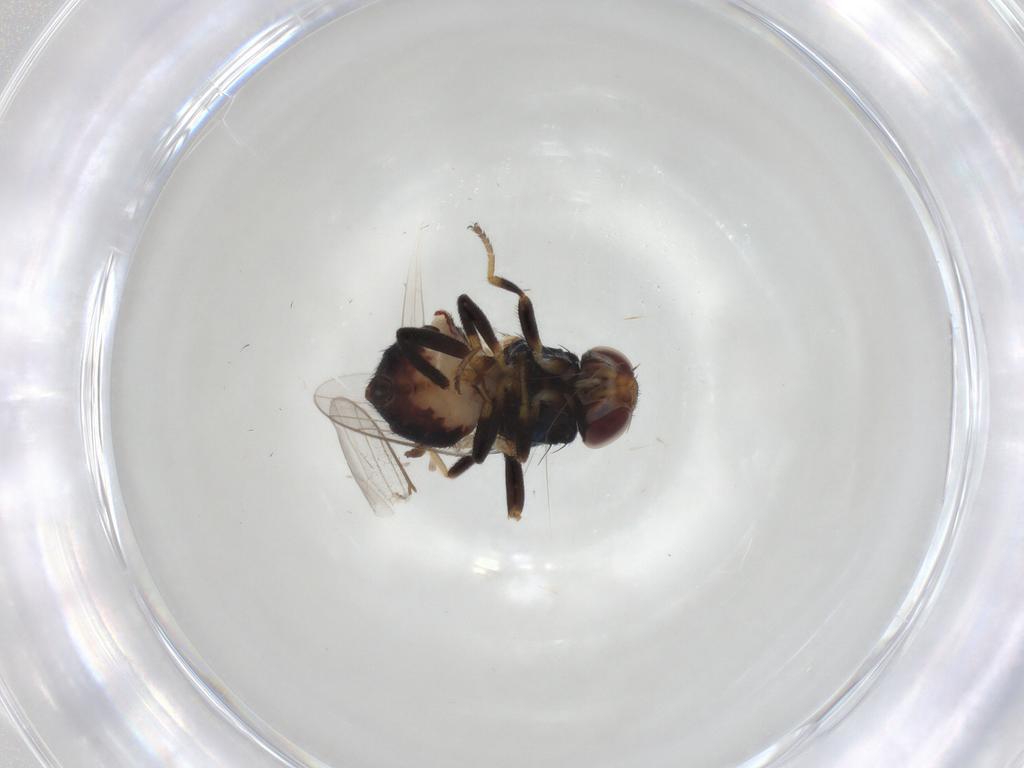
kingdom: Animalia
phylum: Arthropoda
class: Insecta
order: Diptera
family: Chloropidae
